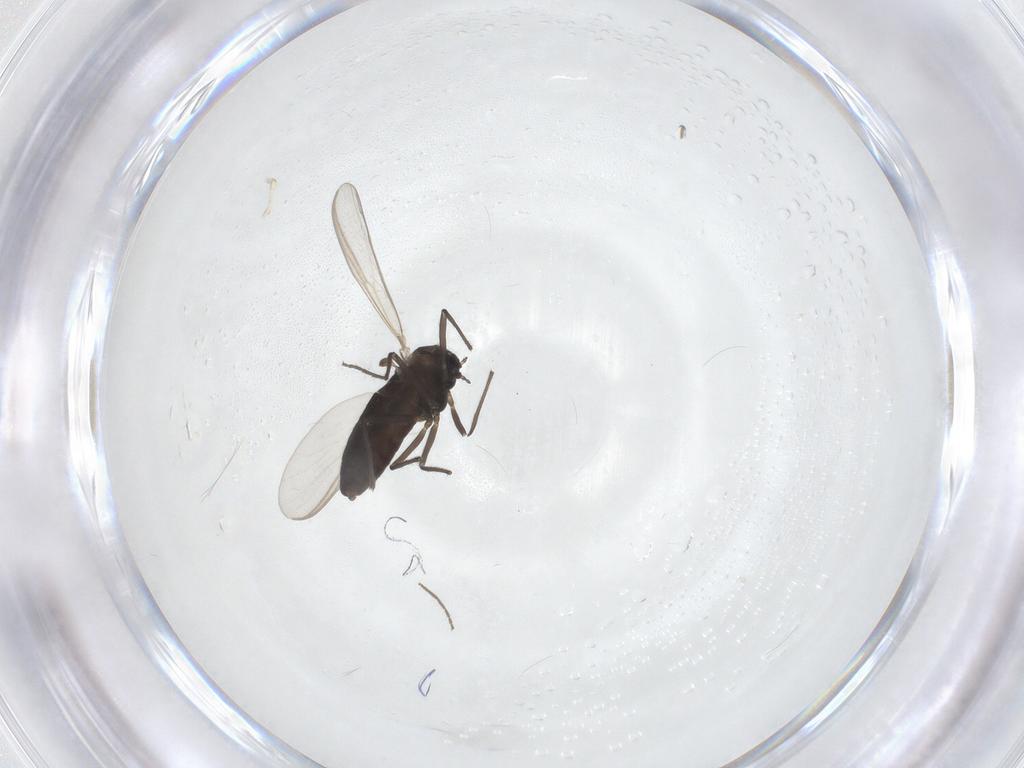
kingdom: Animalia
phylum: Arthropoda
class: Insecta
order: Diptera
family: Chironomidae
